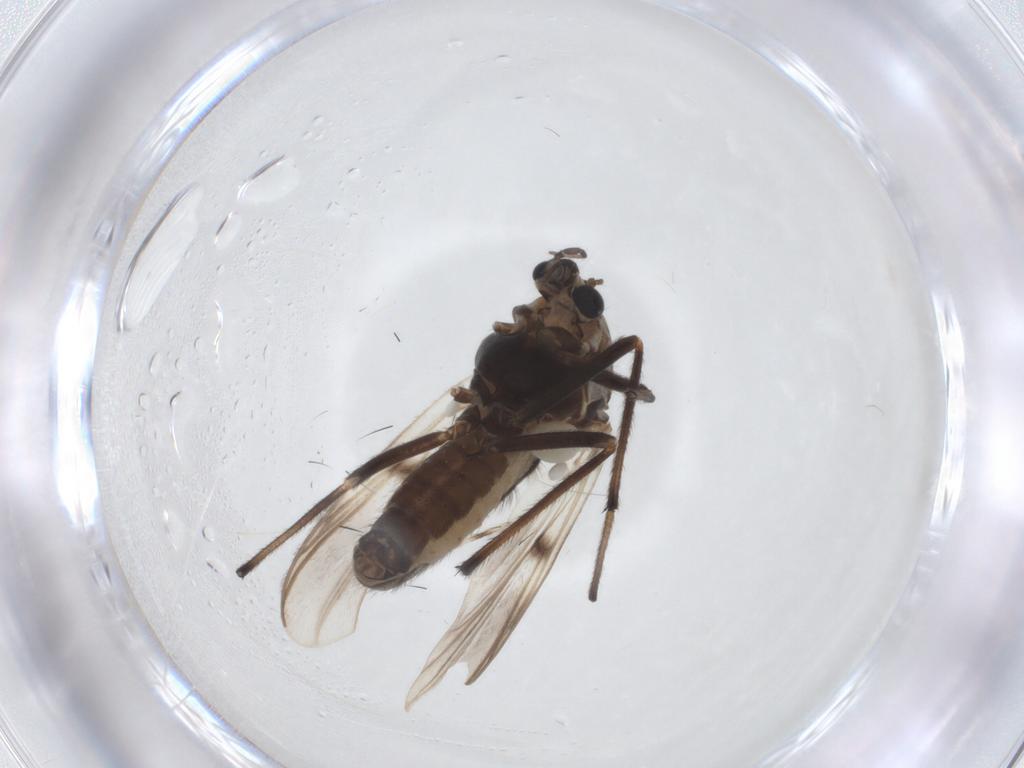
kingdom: Animalia
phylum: Arthropoda
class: Insecta
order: Diptera
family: Chironomidae
